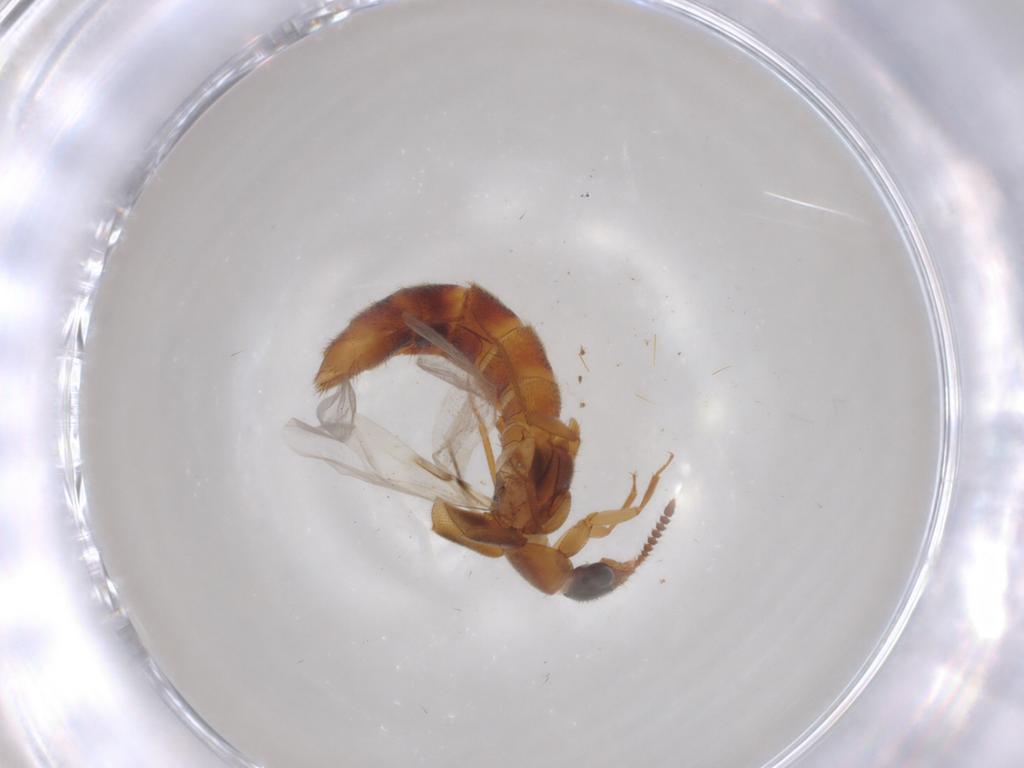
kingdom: Animalia
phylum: Arthropoda
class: Insecta
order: Coleoptera
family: Staphylinidae
